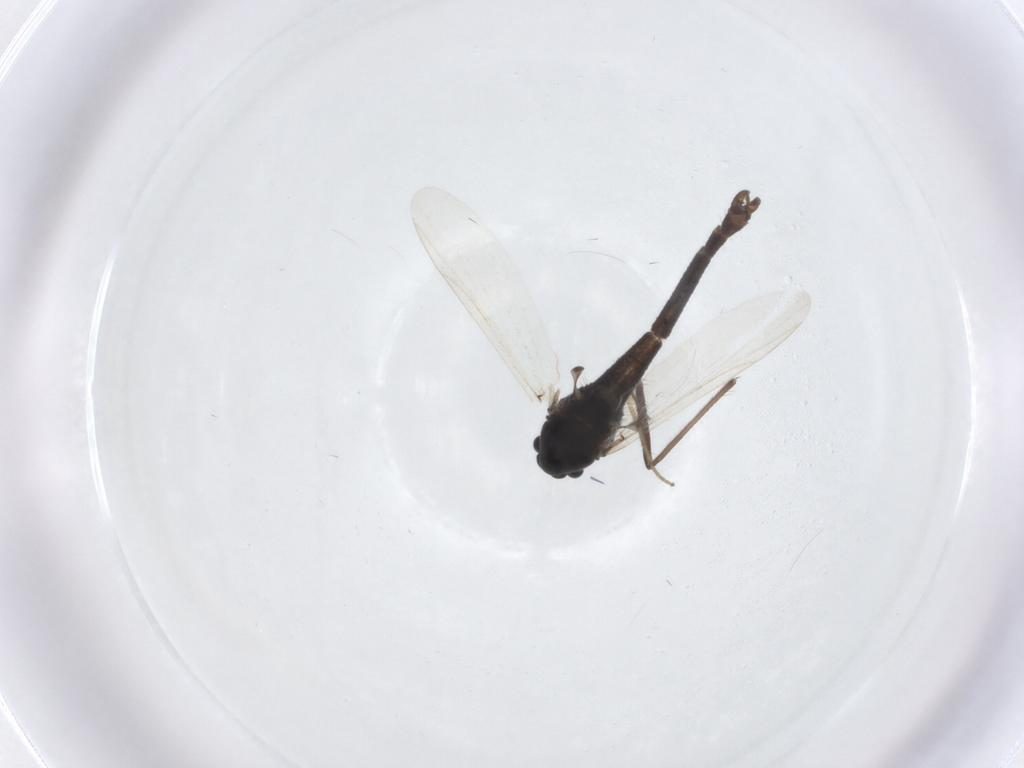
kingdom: Animalia
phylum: Arthropoda
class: Insecta
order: Diptera
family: Chironomidae
